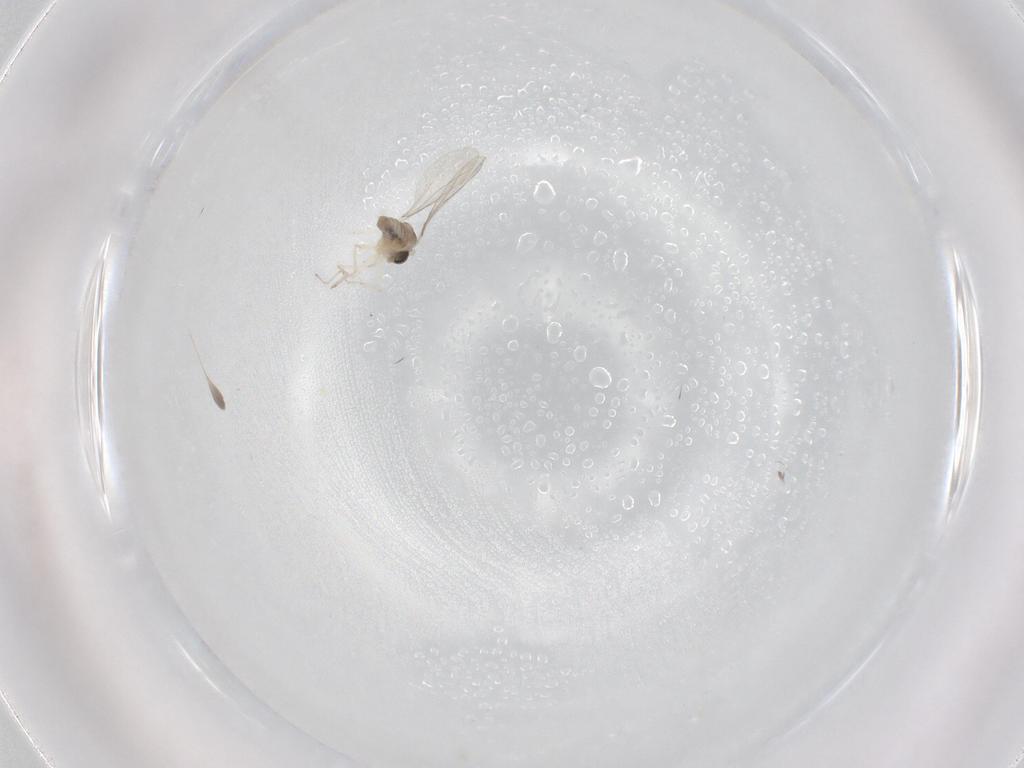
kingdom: Animalia
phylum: Arthropoda
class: Insecta
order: Diptera
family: Cecidomyiidae
